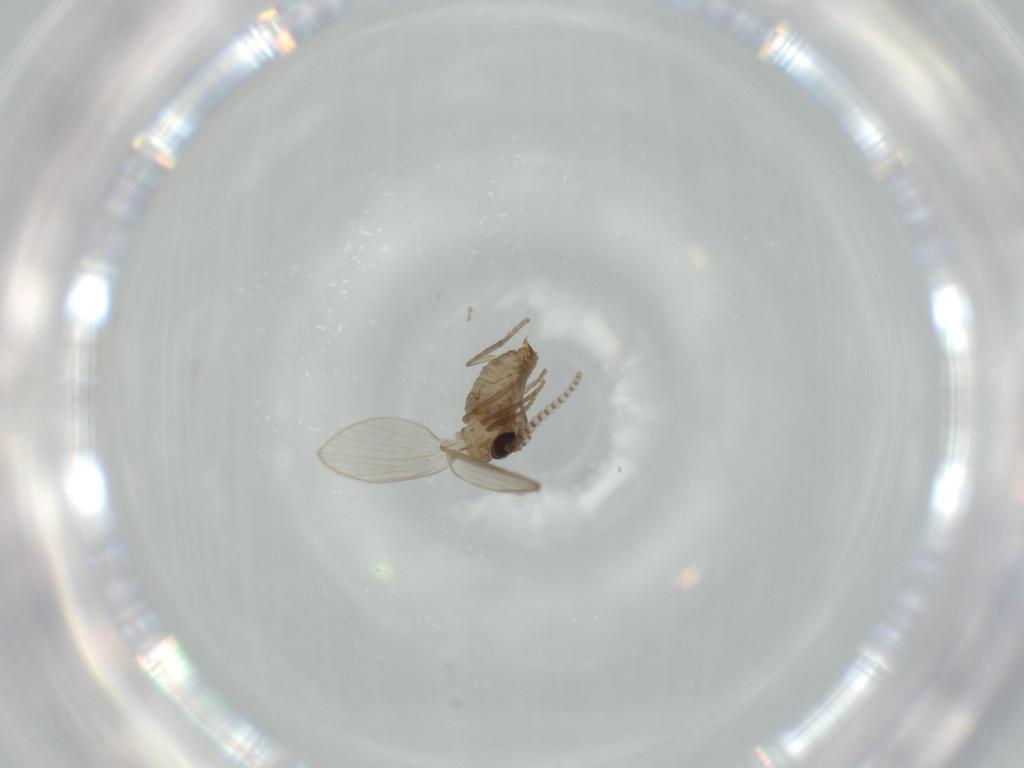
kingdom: Animalia
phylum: Arthropoda
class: Insecta
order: Diptera
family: Psychodidae
